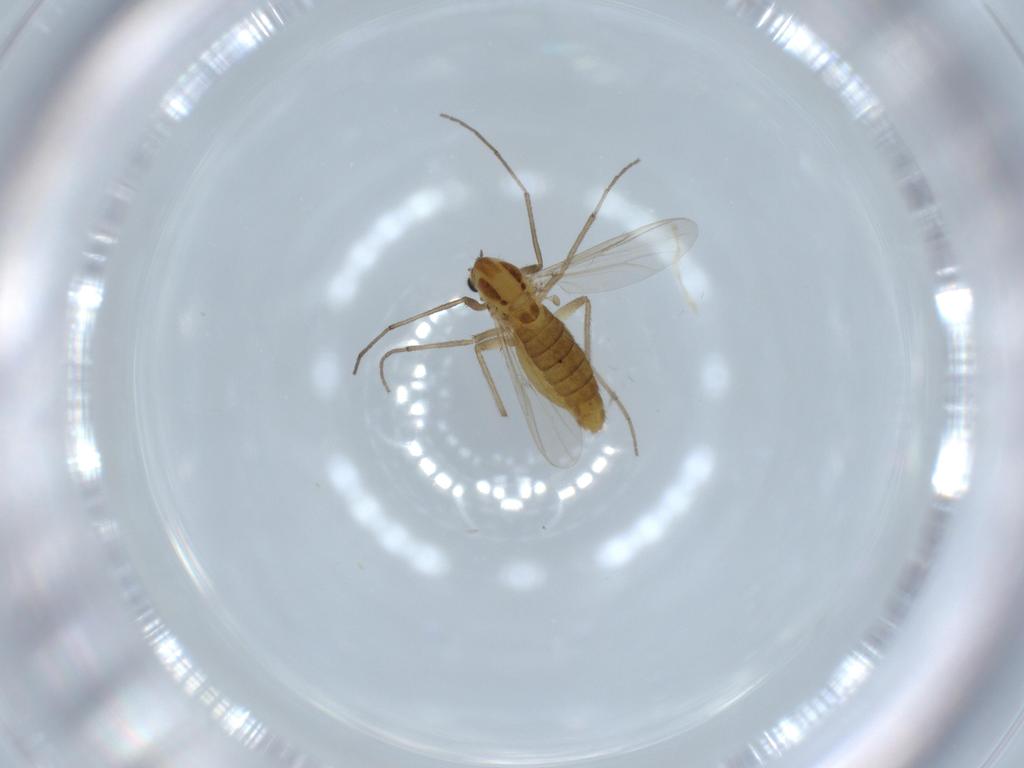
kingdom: Animalia
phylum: Arthropoda
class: Insecta
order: Diptera
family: Chironomidae
